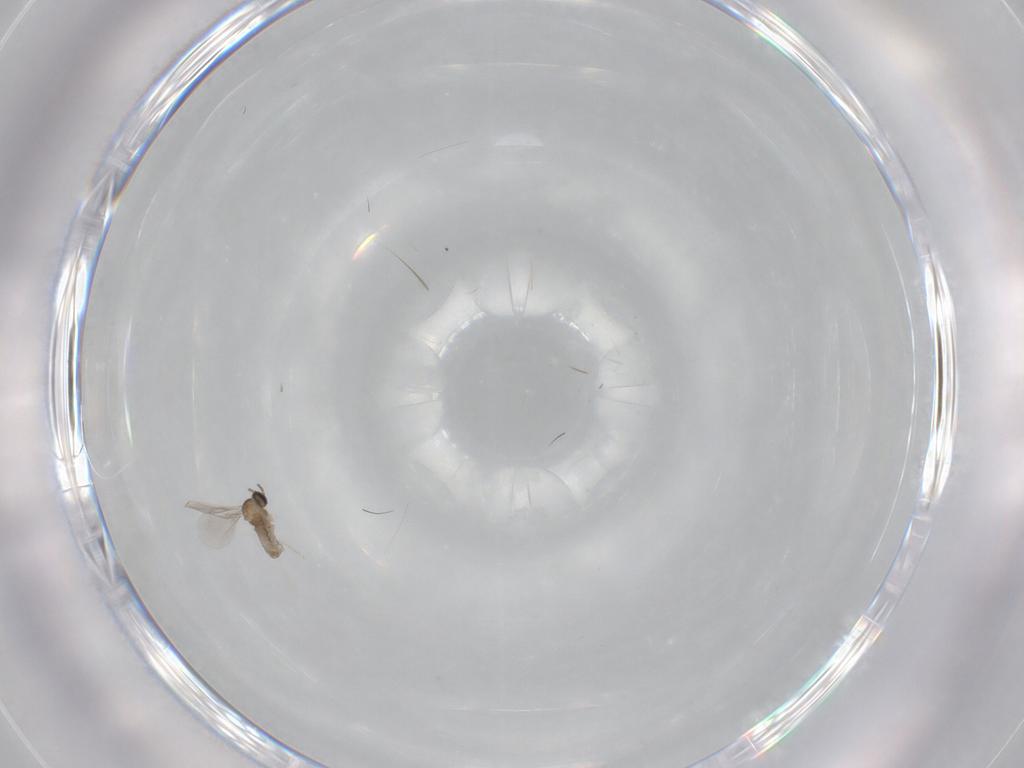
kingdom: Animalia
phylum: Arthropoda
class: Insecta
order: Diptera
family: Cecidomyiidae
